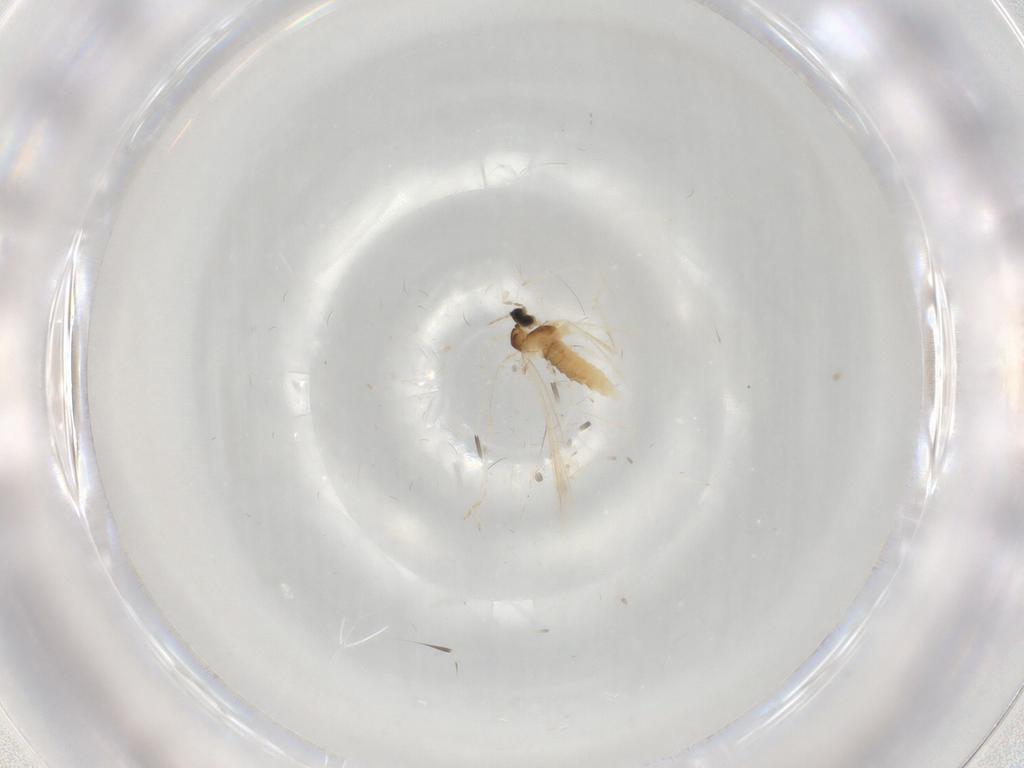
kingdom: Animalia
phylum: Arthropoda
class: Insecta
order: Diptera
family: Cecidomyiidae
